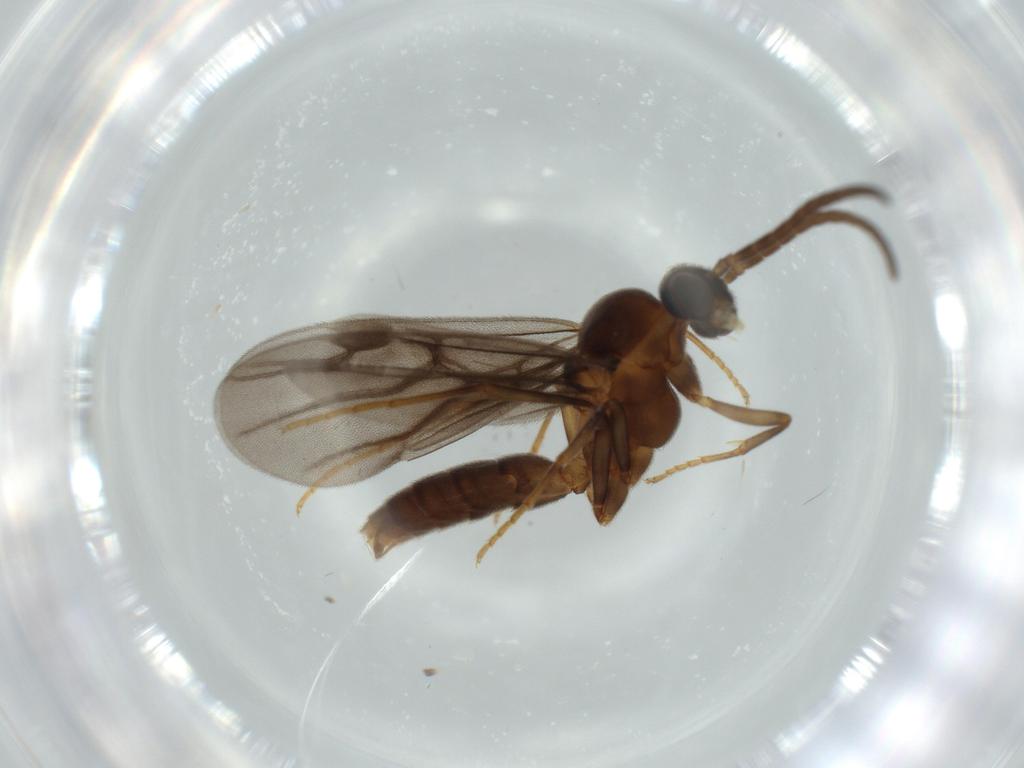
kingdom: Animalia
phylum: Arthropoda
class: Insecta
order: Hymenoptera
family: Formicidae
